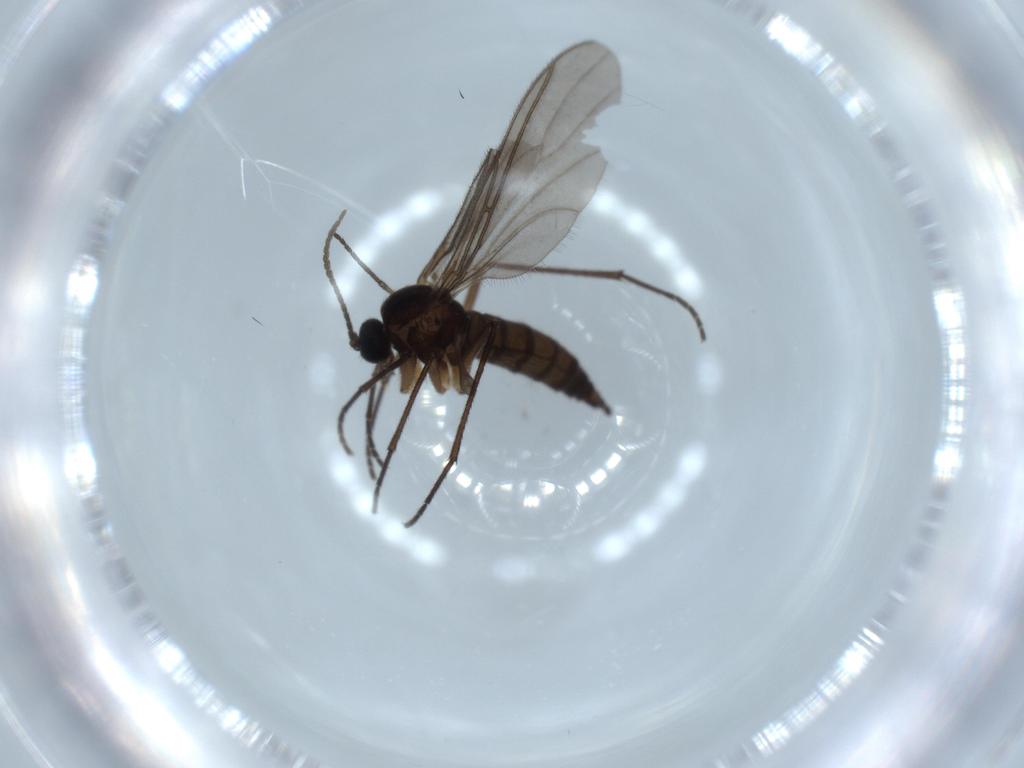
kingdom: Animalia
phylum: Arthropoda
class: Insecta
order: Diptera
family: Sciaridae
